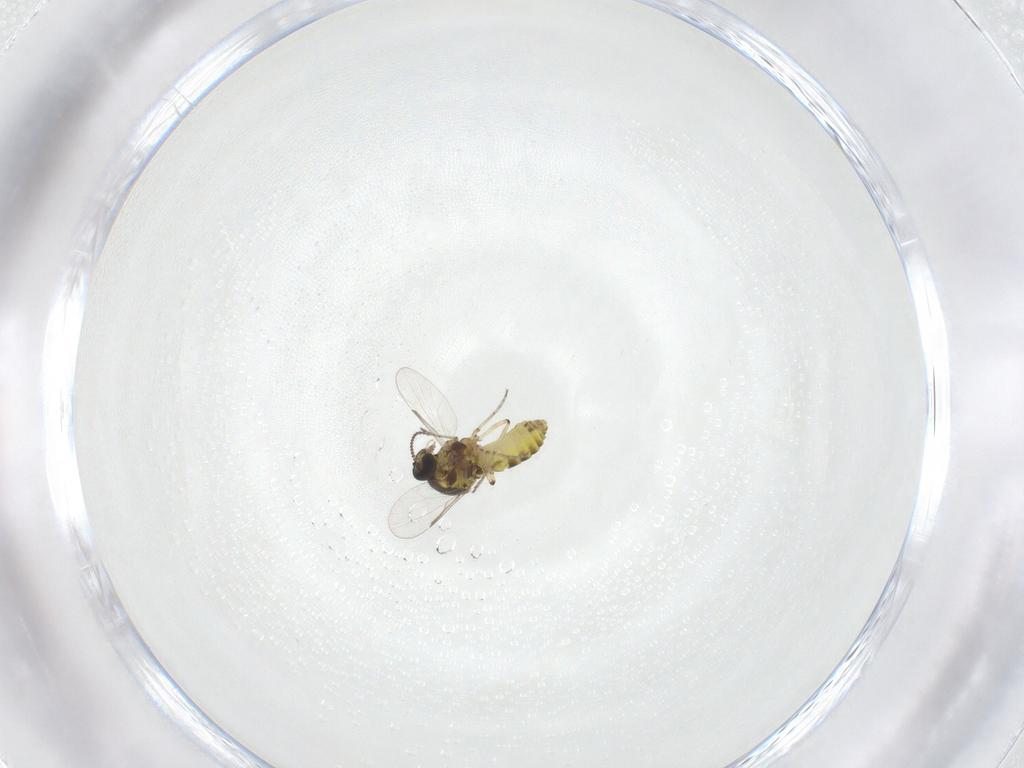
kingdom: Animalia
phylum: Arthropoda
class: Insecta
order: Diptera
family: Ceratopogonidae
